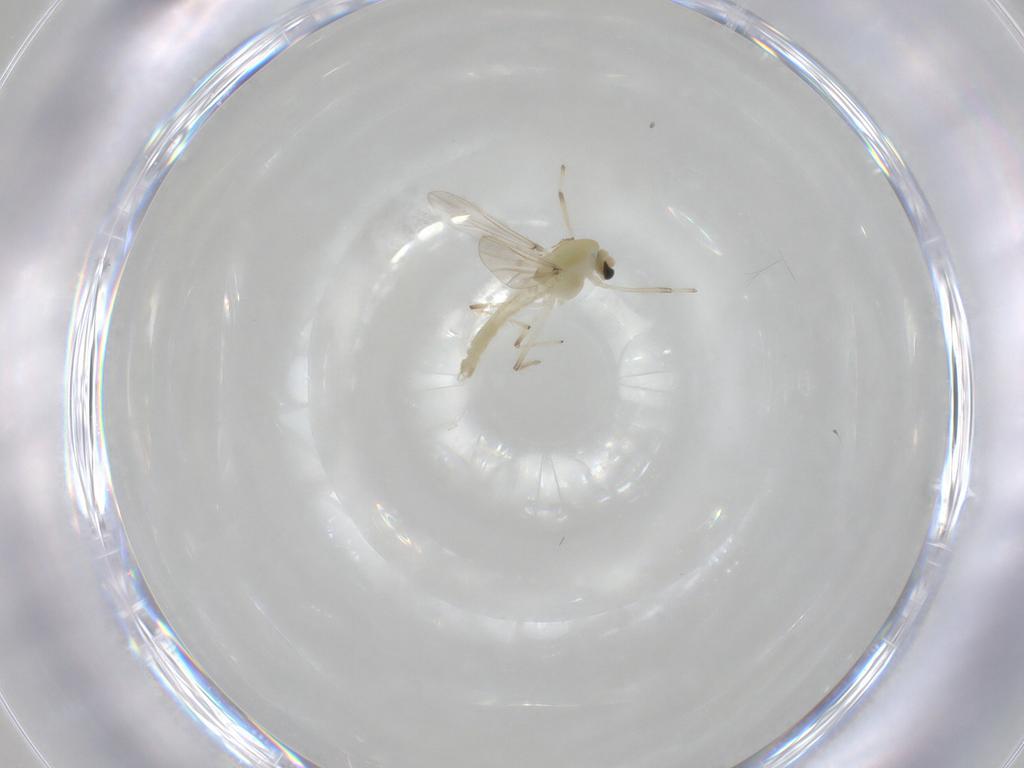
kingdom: Animalia
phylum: Arthropoda
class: Insecta
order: Diptera
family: Chironomidae
